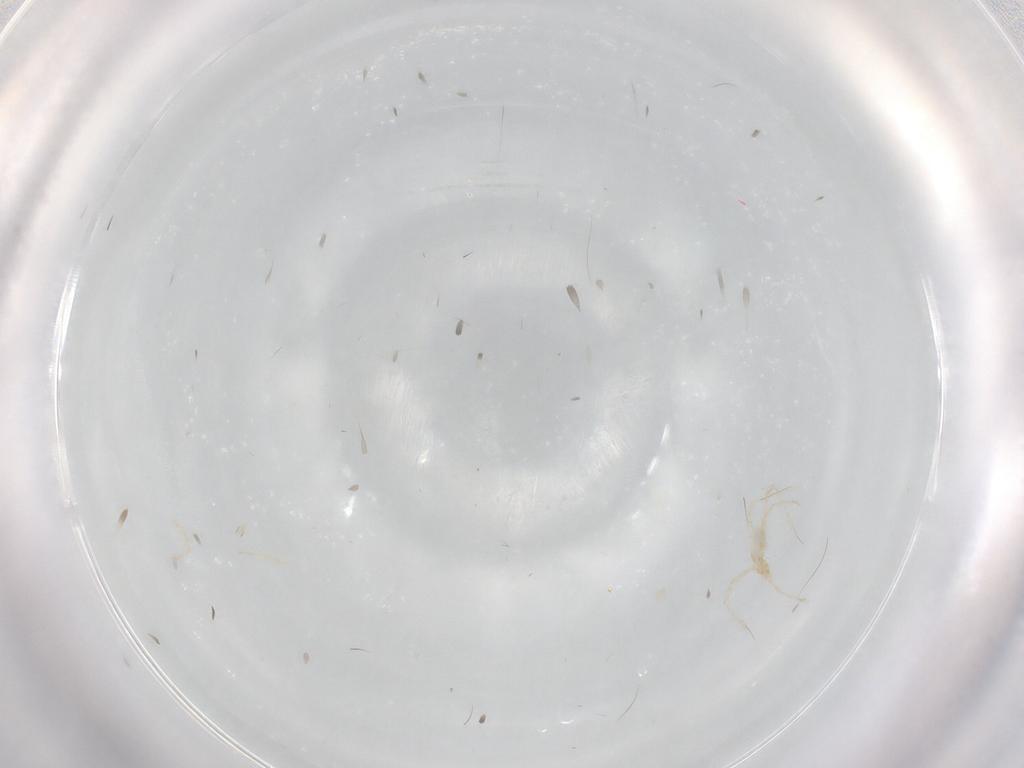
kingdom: Animalia
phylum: Arthropoda
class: Arachnida
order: Trombidiformes
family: Erythraeidae
